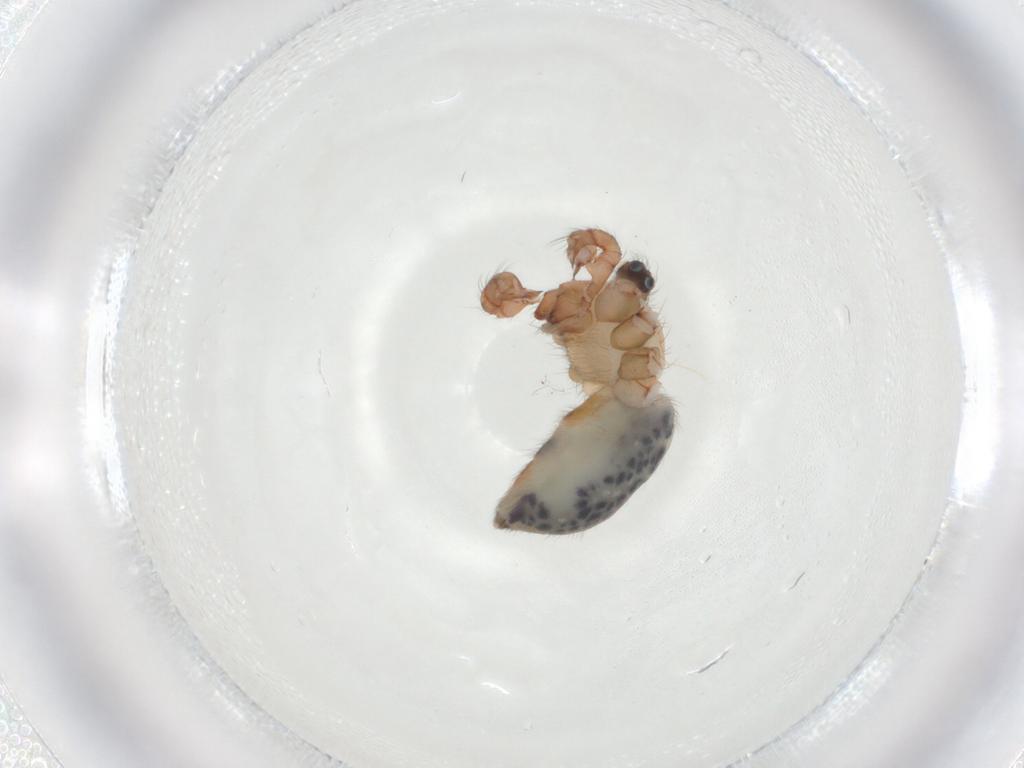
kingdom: Animalia
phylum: Arthropoda
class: Arachnida
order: Araneae
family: Pholcidae
